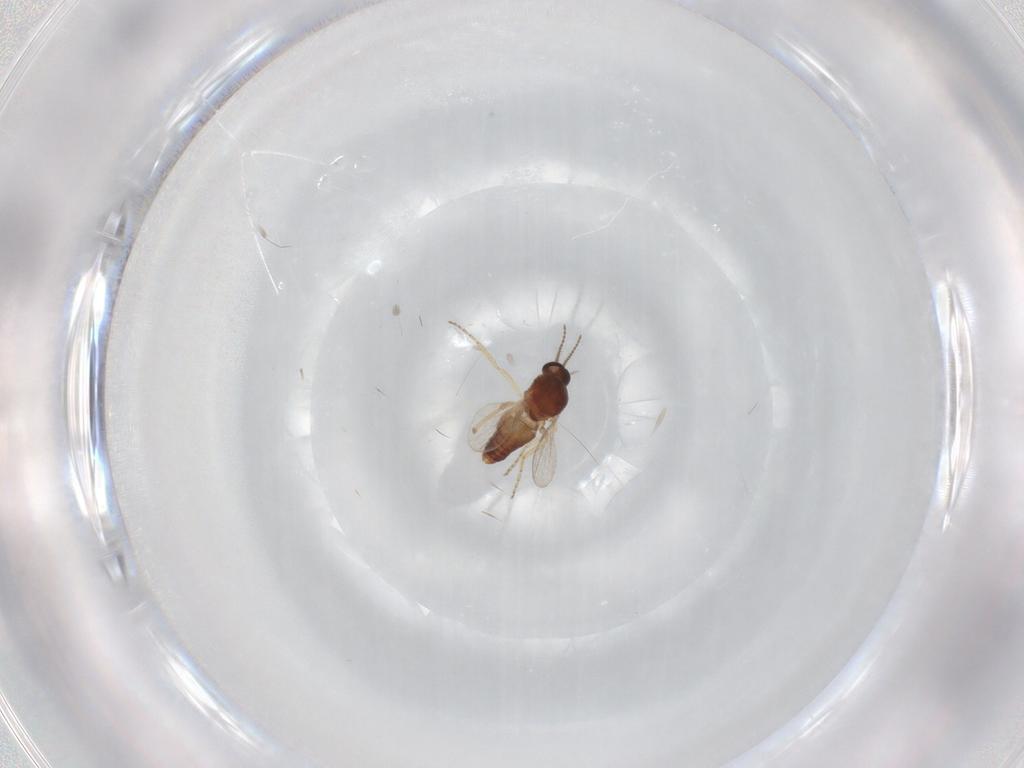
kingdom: Animalia
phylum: Arthropoda
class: Insecta
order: Diptera
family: Ceratopogonidae
